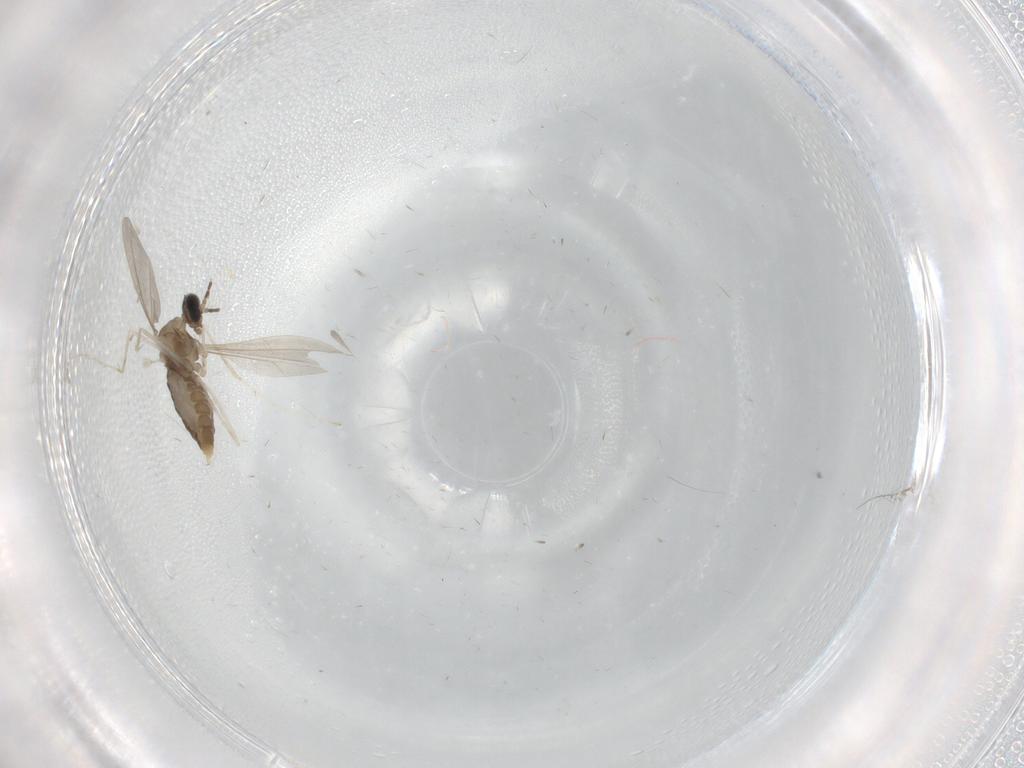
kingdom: Animalia
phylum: Arthropoda
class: Insecta
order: Diptera
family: Cecidomyiidae
